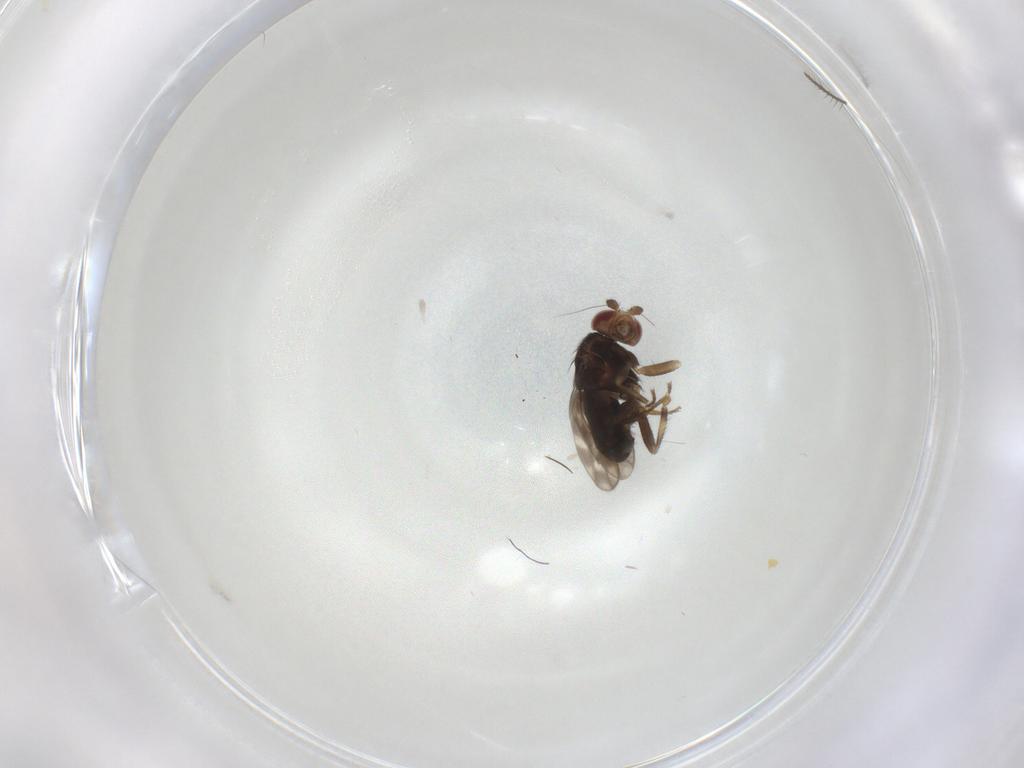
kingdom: Animalia
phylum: Arthropoda
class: Insecta
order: Diptera
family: Sphaeroceridae
